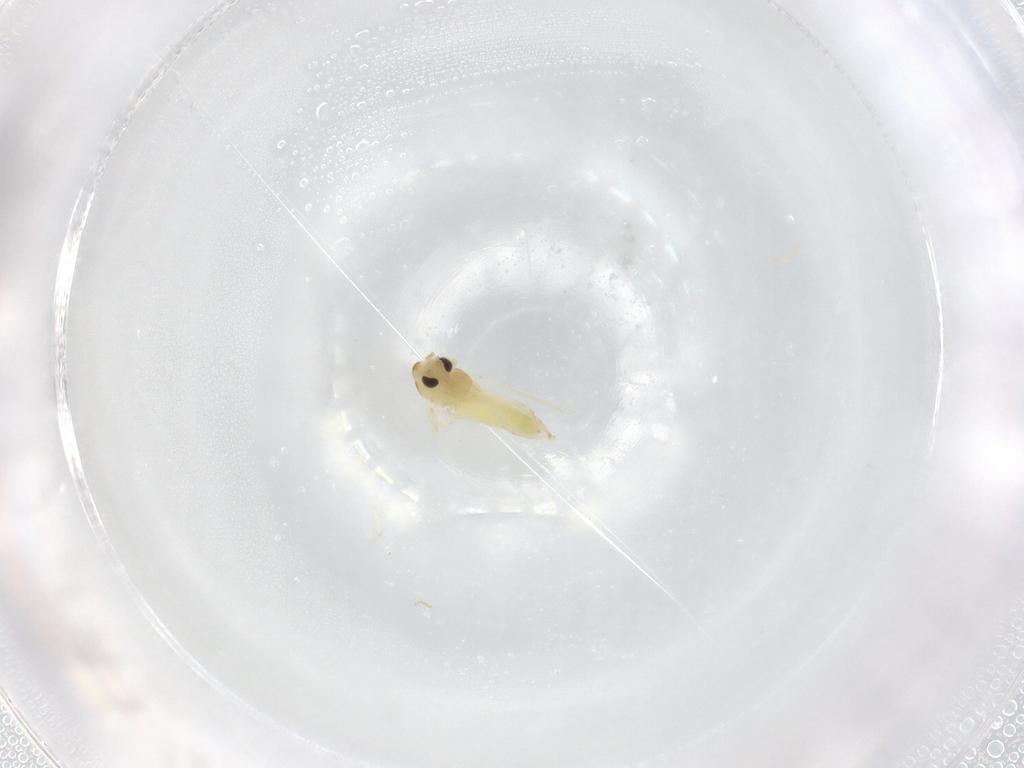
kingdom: Animalia
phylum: Arthropoda
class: Insecta
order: Diptera
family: Chironomidae
